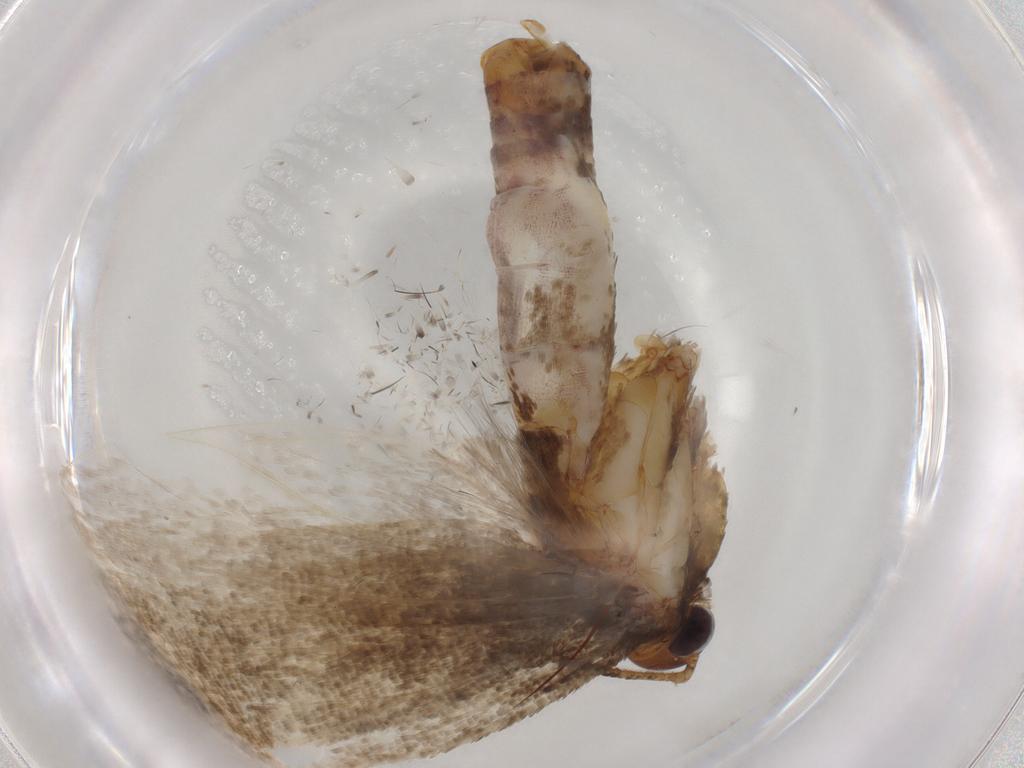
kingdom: Animalia
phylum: Arthropoda
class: Insecta
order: Lepidoptera
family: Gelechiidae
